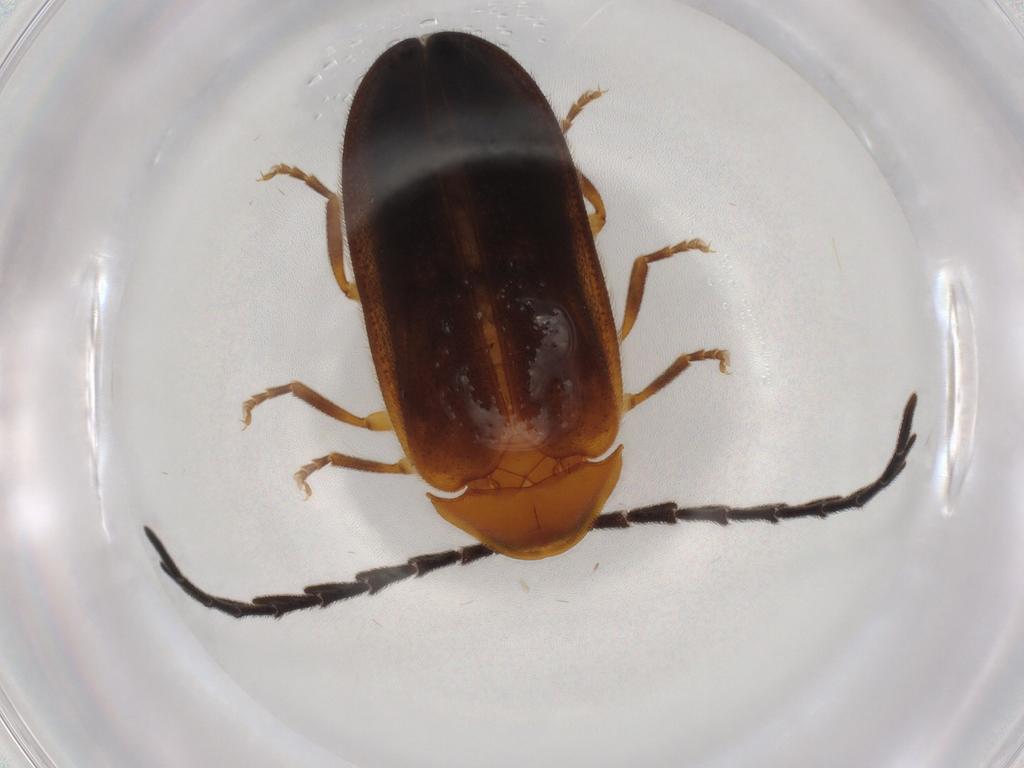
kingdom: Animalia
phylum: Arthropoda
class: Insecta
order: Coleoptera
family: Lampyridae
